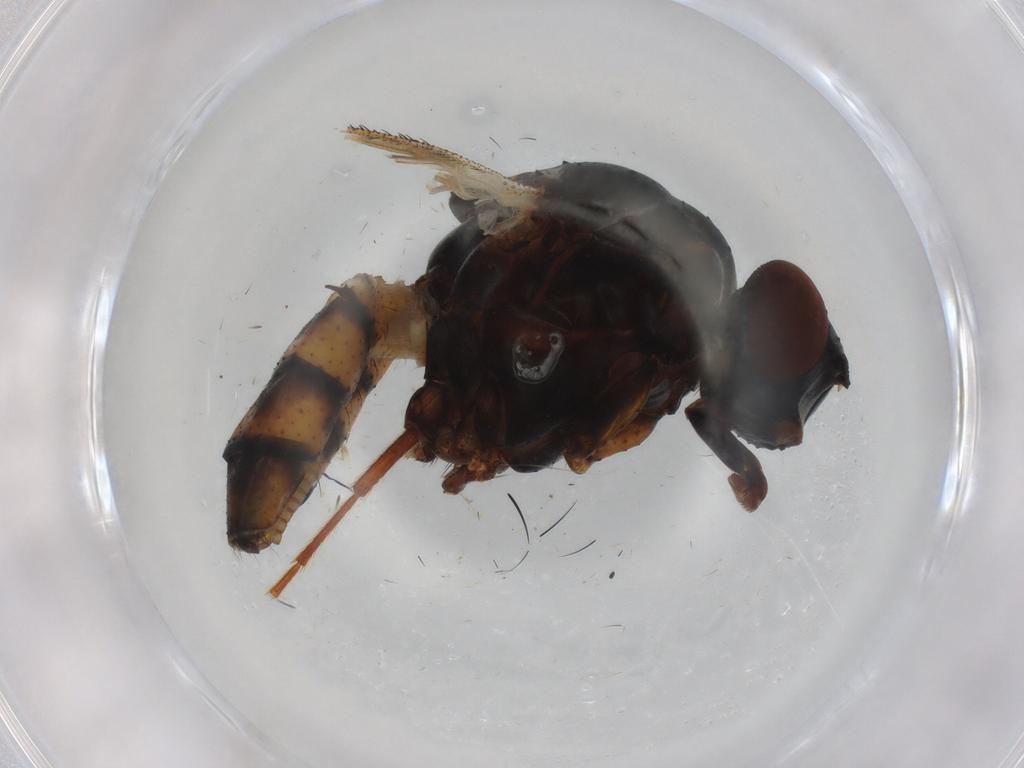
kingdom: Animalia
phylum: Arthropoda
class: Insecta
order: Diptera
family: Anthomyiidae
